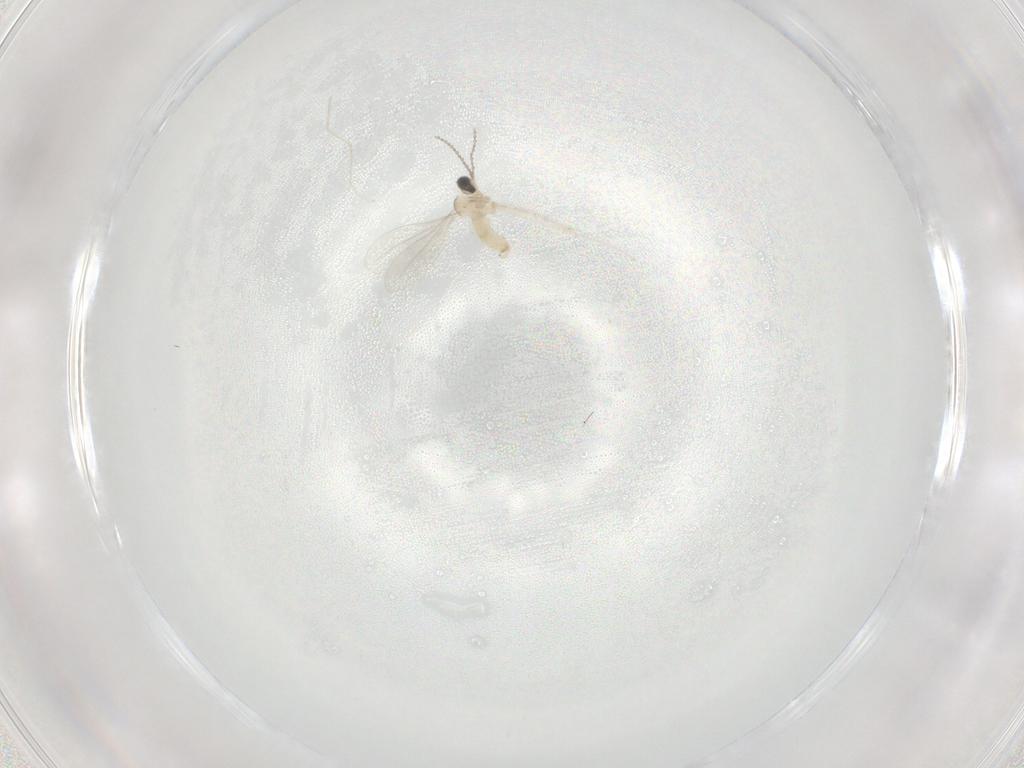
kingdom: Animalia
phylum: Arthropoda
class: Insecta
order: Diptera
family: Cecidomyiidae
